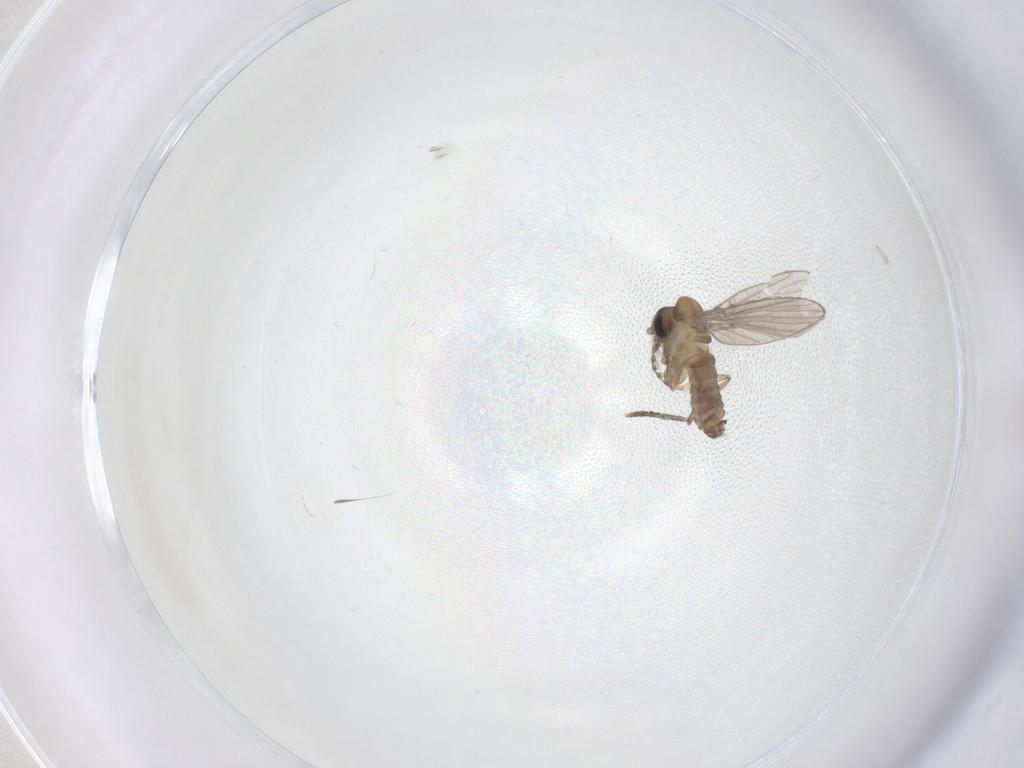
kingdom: Animalia
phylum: Arthropoda
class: Insecta
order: Diptera
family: Psychodidae
